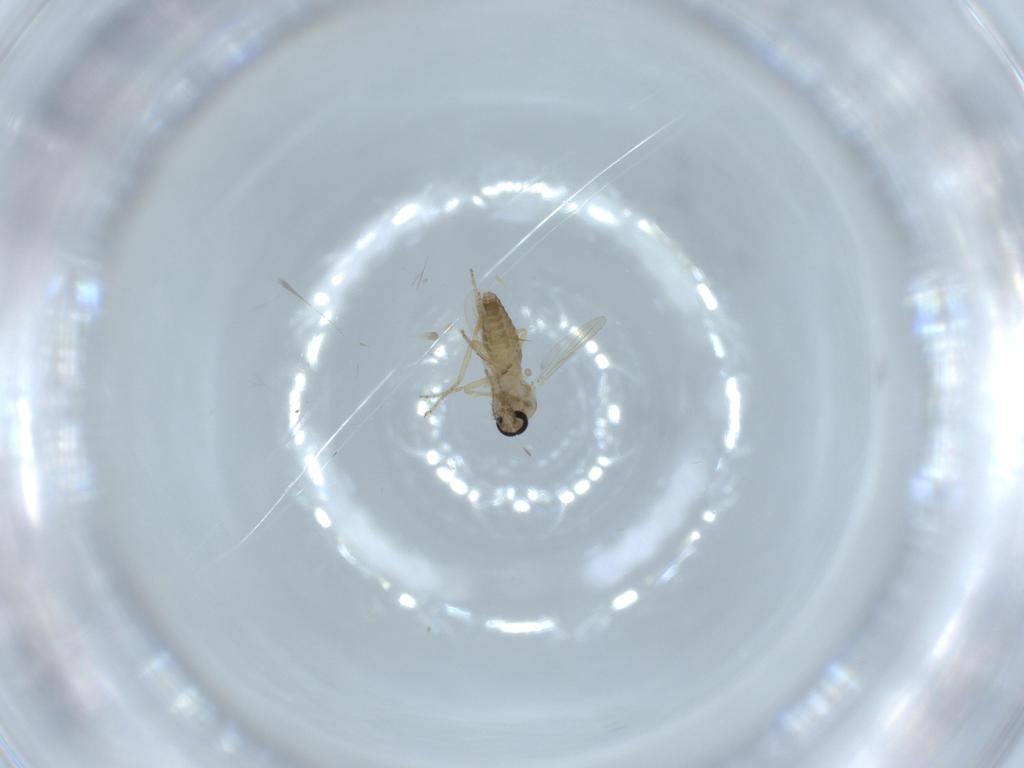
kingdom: Animalia
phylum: Arthropoda
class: Insecta
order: Diptera
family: Ceratopogonidae
